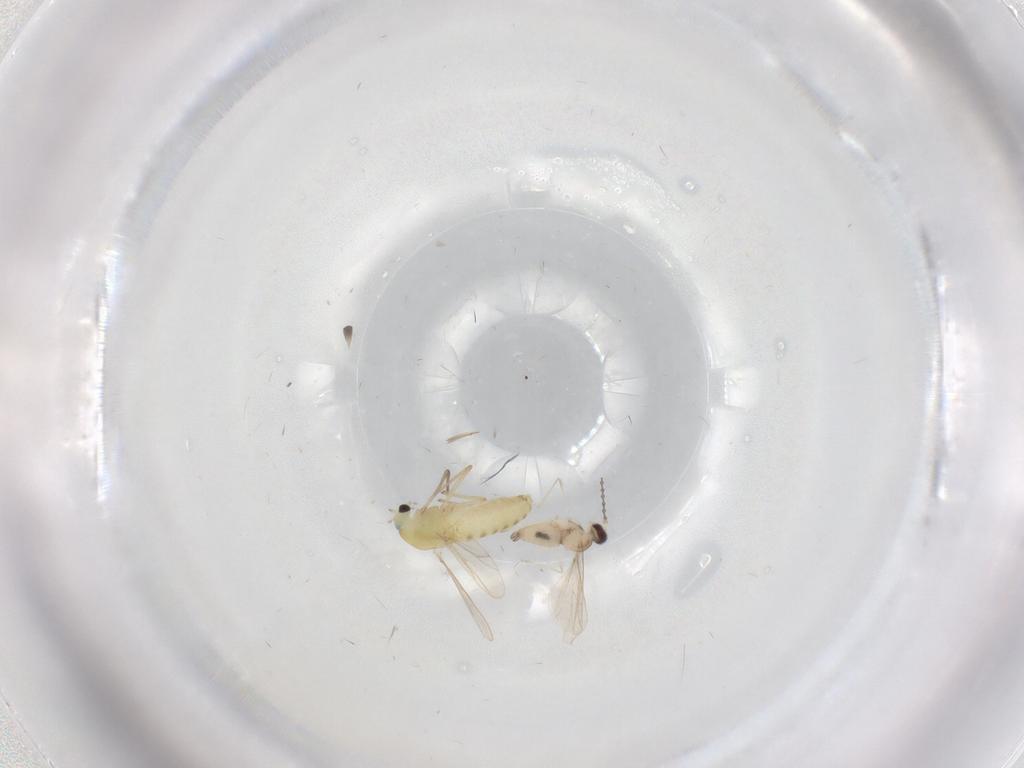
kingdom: Animalia
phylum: Arthropoda
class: Insecta
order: Diptera
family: Chironomidae
